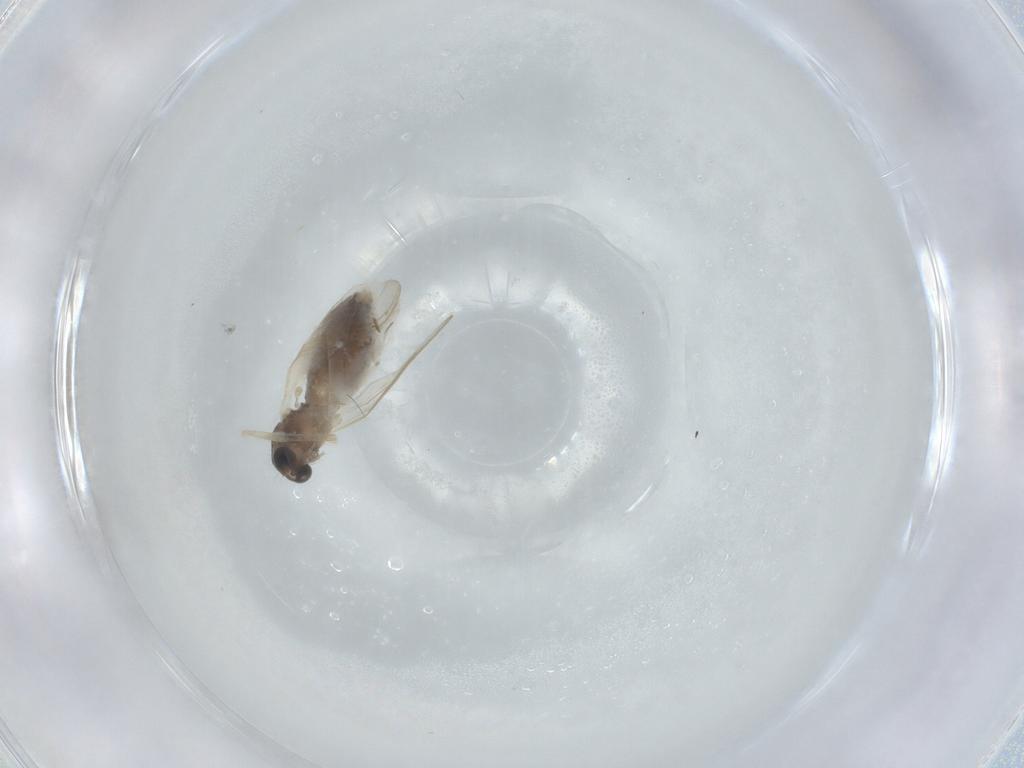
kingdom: Animalia
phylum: Arthropoda
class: Insecta
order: Diptera
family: Chironomidae
